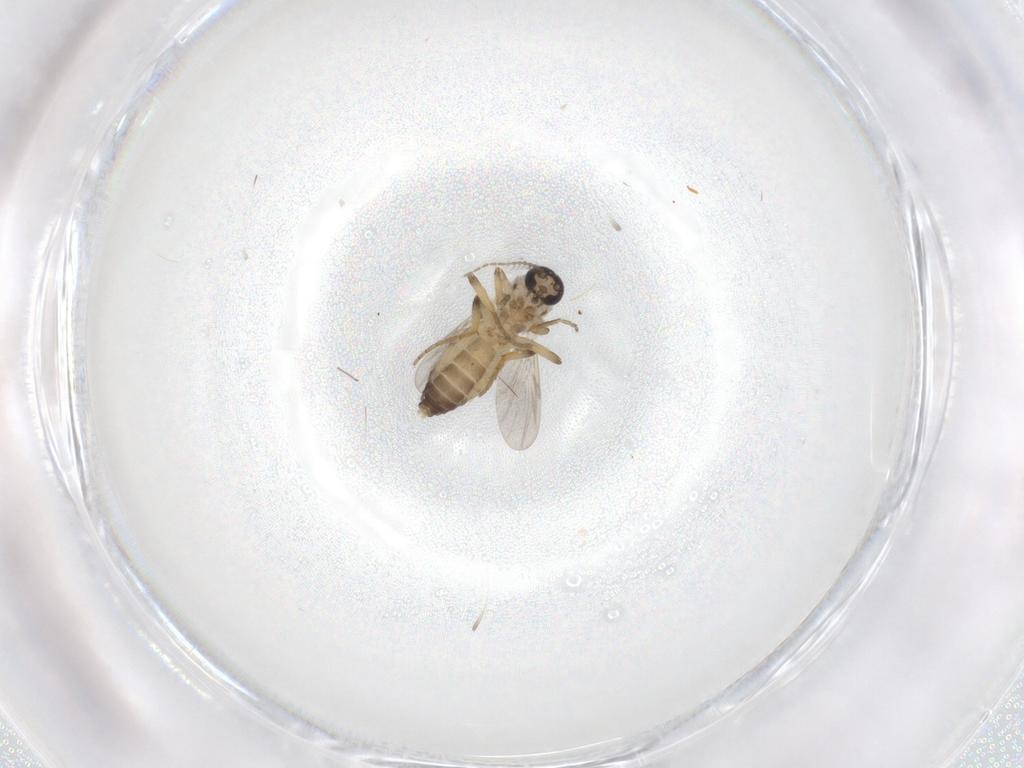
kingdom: Animalia
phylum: Arthropoda
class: Insecta
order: Diptera
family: Ceratopogonidae
